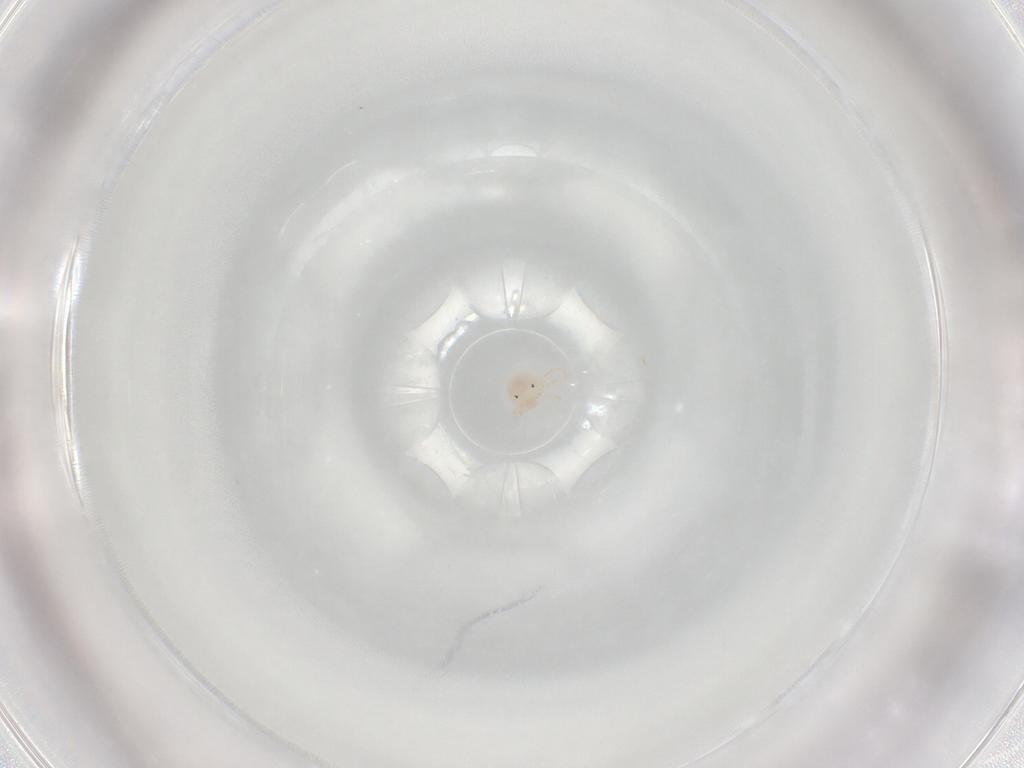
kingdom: Animalia
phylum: Arthropoda
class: Arachnida
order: Trombidiformes
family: Sperchontidae
